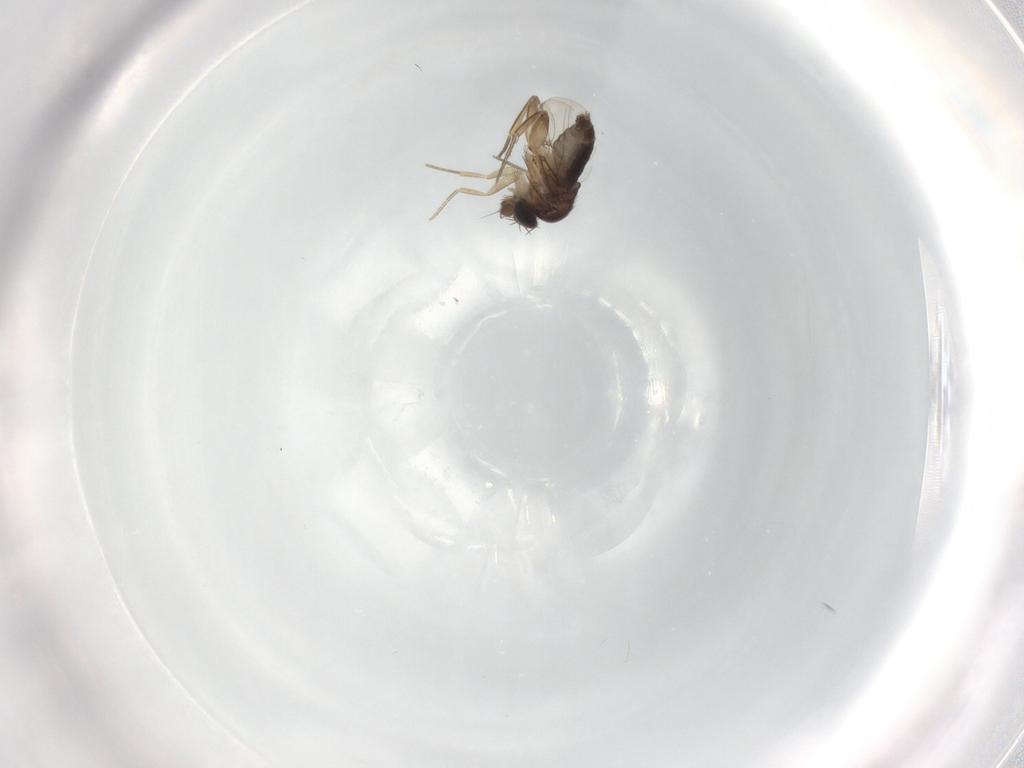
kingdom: Animalia
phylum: Arthropoda
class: Insecta
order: Diptera
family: Phoridae
